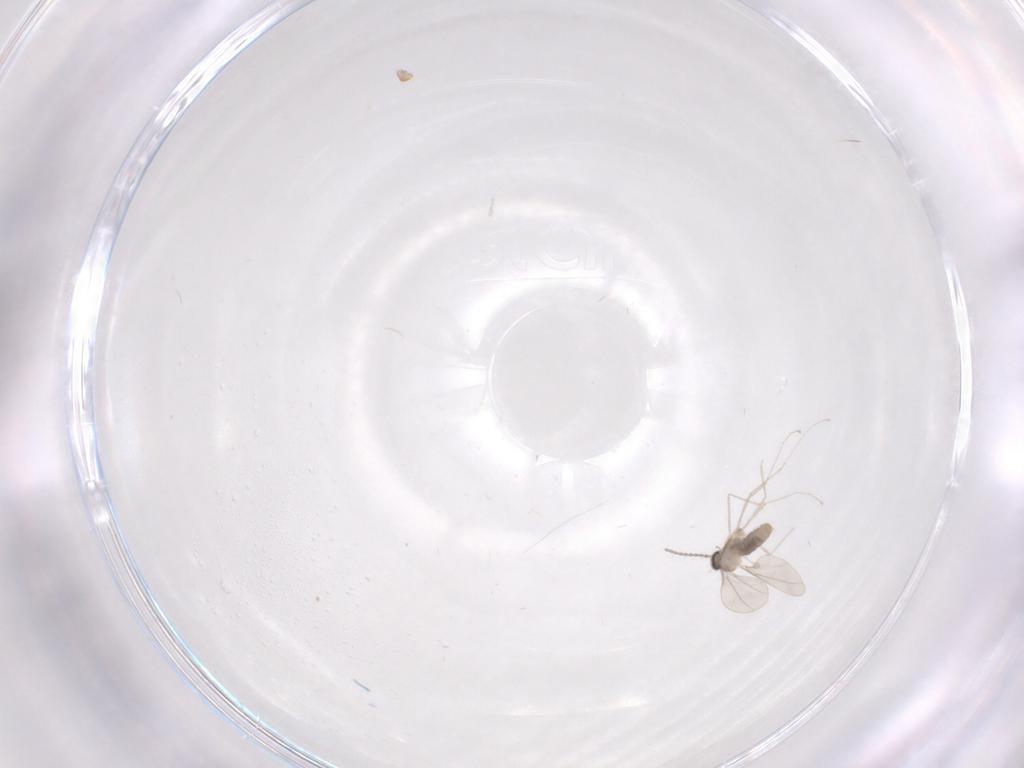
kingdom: Animalia
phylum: Arthropoda
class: Insecta
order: Diptera
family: Cecidomyiidae
